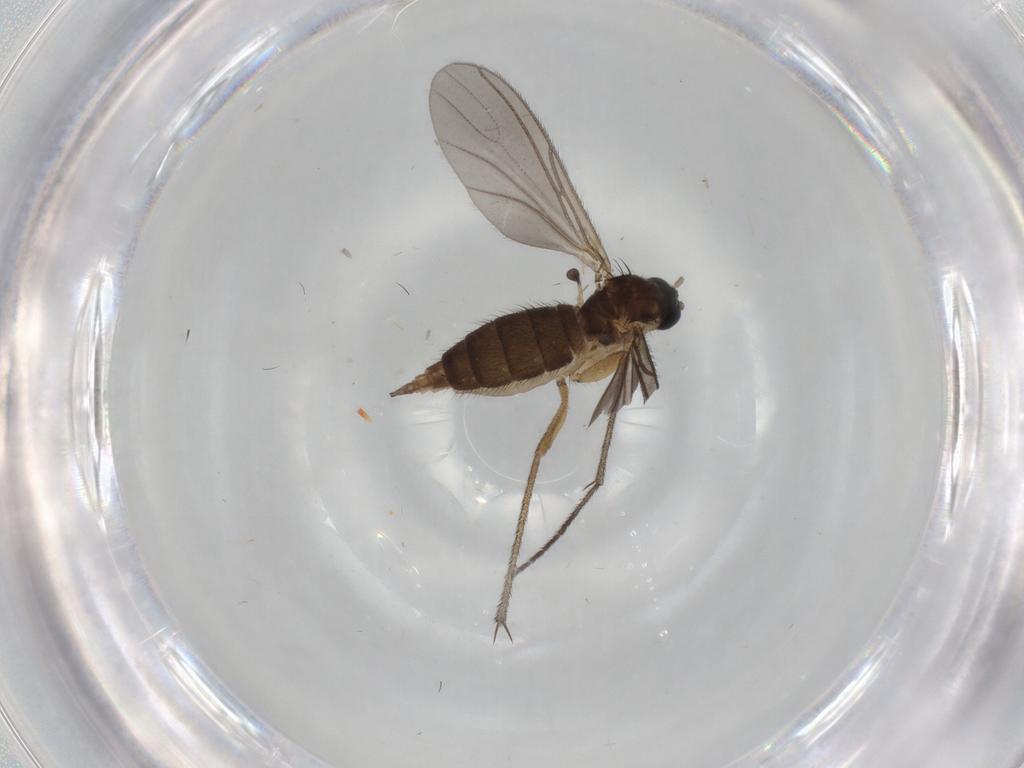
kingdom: Animalia
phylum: Arthropoda
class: Insecta
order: Diptera
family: Sciaridae
